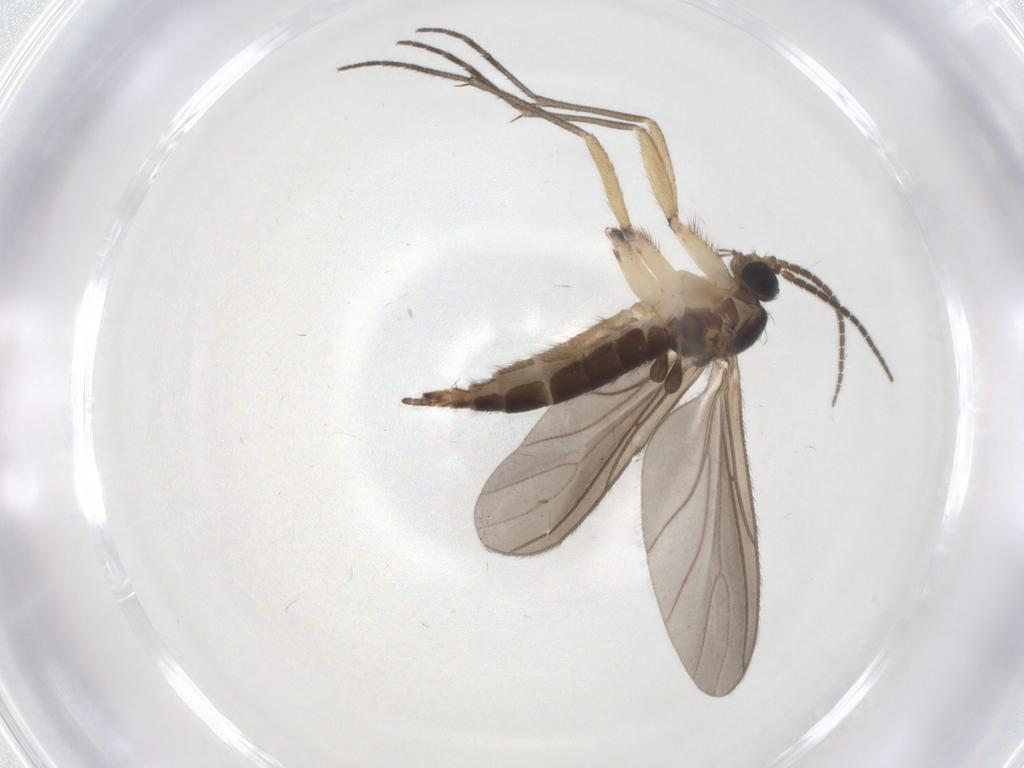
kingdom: Animalia
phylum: Arthropoda
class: Insecta
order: Diptera
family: Sciaridae
